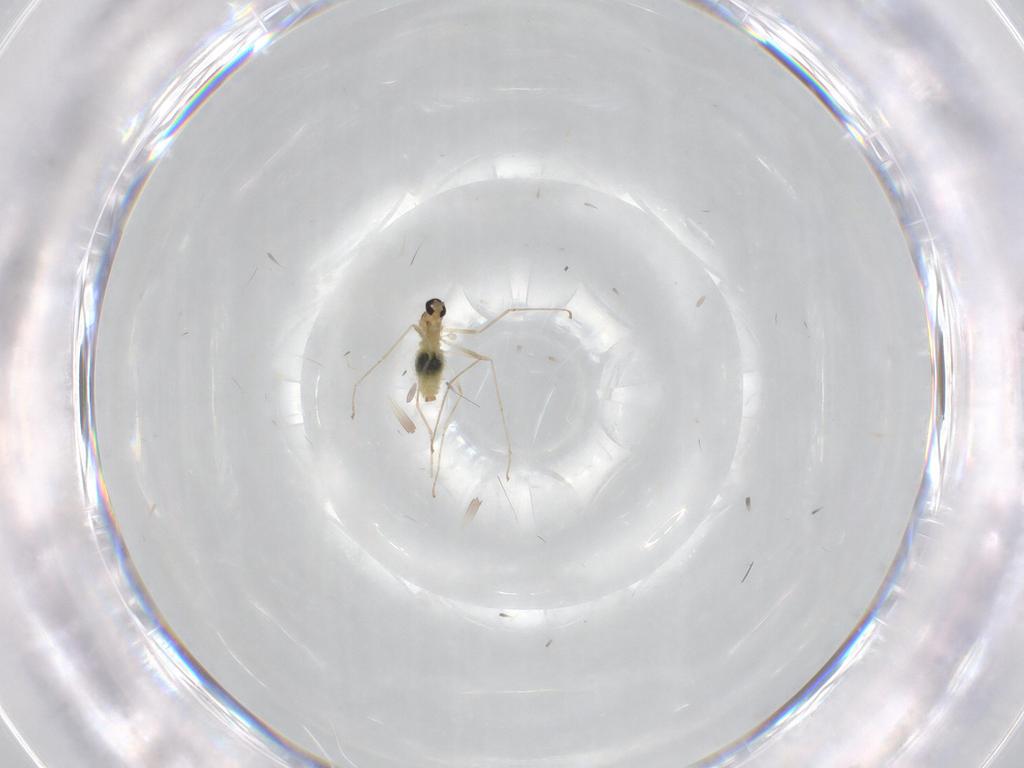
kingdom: Animalia
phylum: Arthropoda
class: Insecta
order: Diptera
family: Cecidomyiidae
